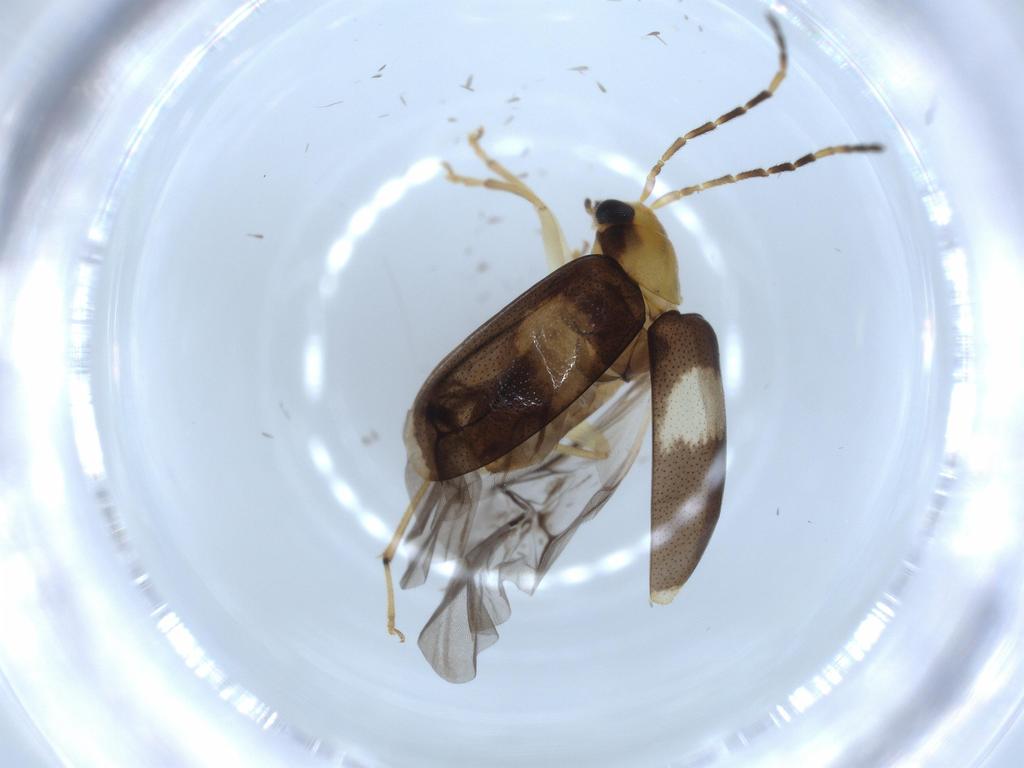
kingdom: Animalia
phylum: Arthropoda
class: Insecta
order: Coleoptera
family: Chrysomelidae
